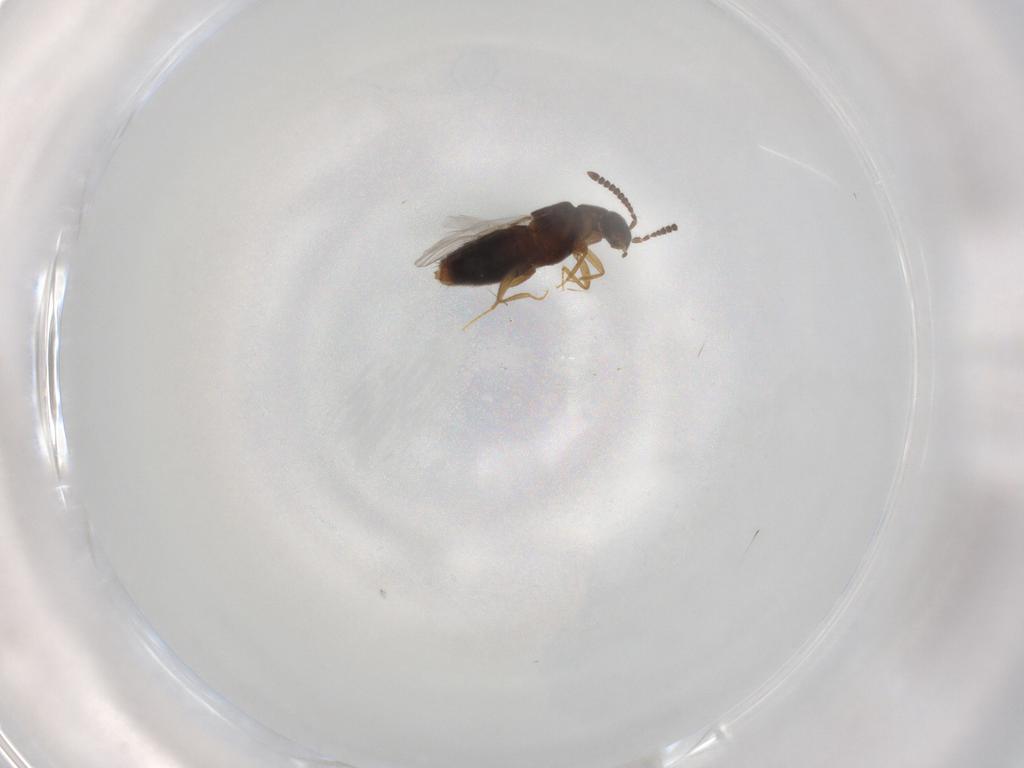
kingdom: Animalia
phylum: Arthropoda
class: Insecta
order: Coleoptera
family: Staphylinidae
